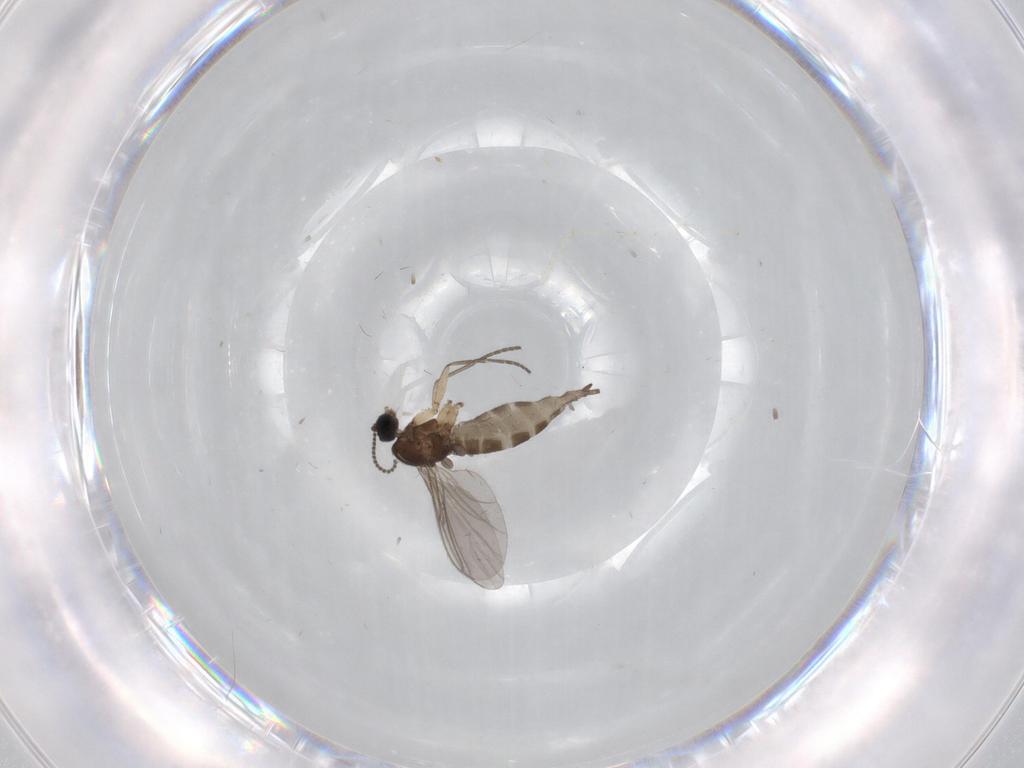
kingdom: Animalia
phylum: Arthropoda
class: Insecta
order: Diptera
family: Sciaridae
